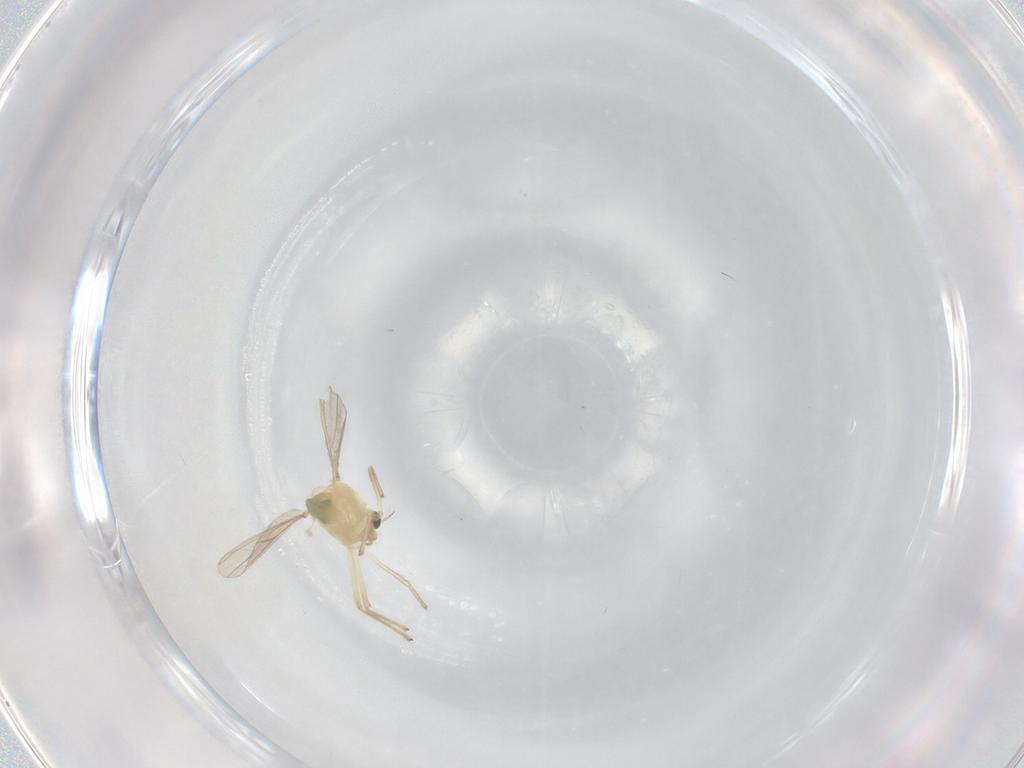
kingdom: Animalia
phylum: Arthropoda
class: Insecta
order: Diptera
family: Chironomidae
